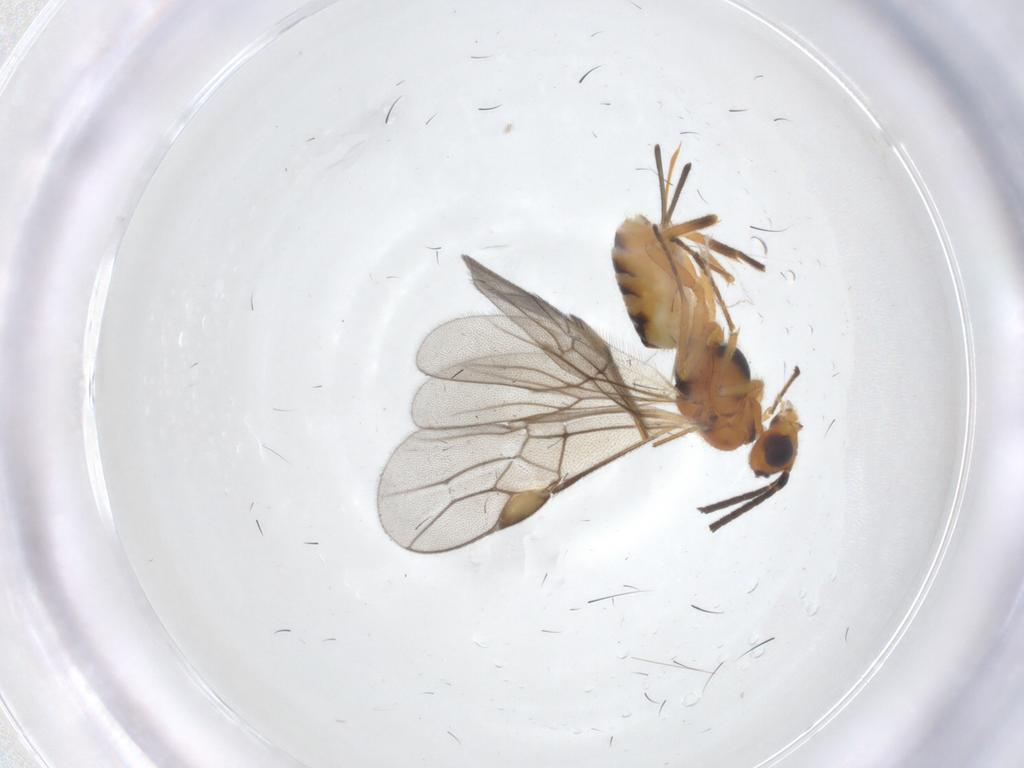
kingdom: Animalia
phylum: Arthropoda
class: Insecta
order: Hymenoptera
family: Braconidae
